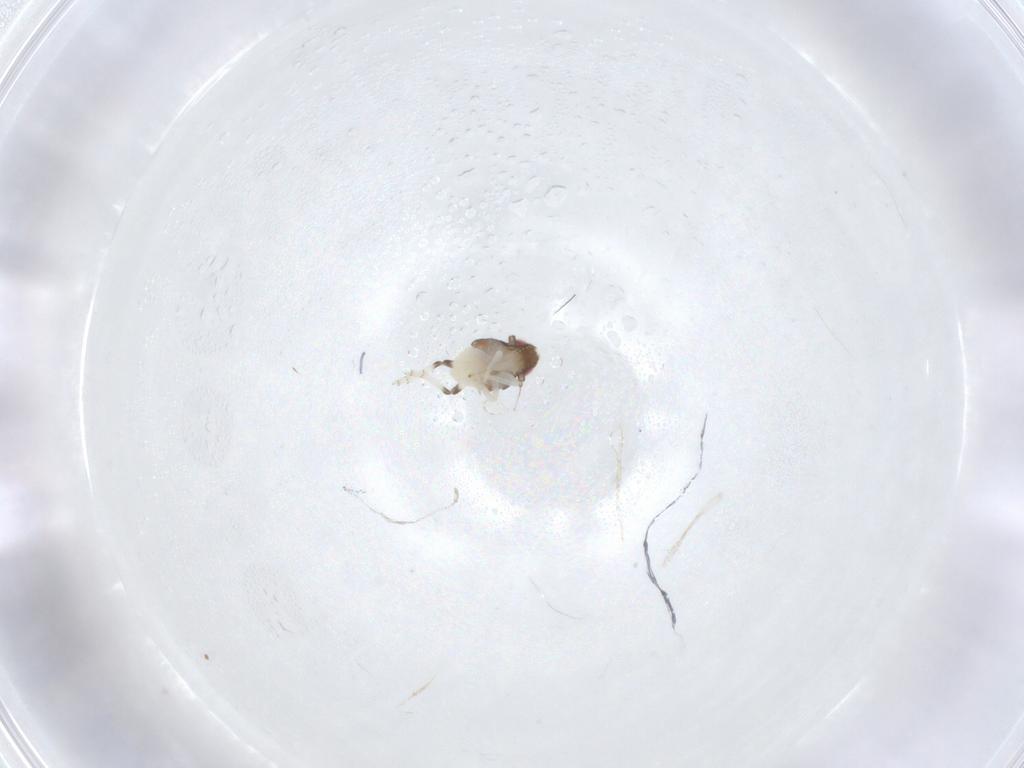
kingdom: Animalia
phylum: Arthropoda
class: Insecta
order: Hemiptera
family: Nogodinidae
